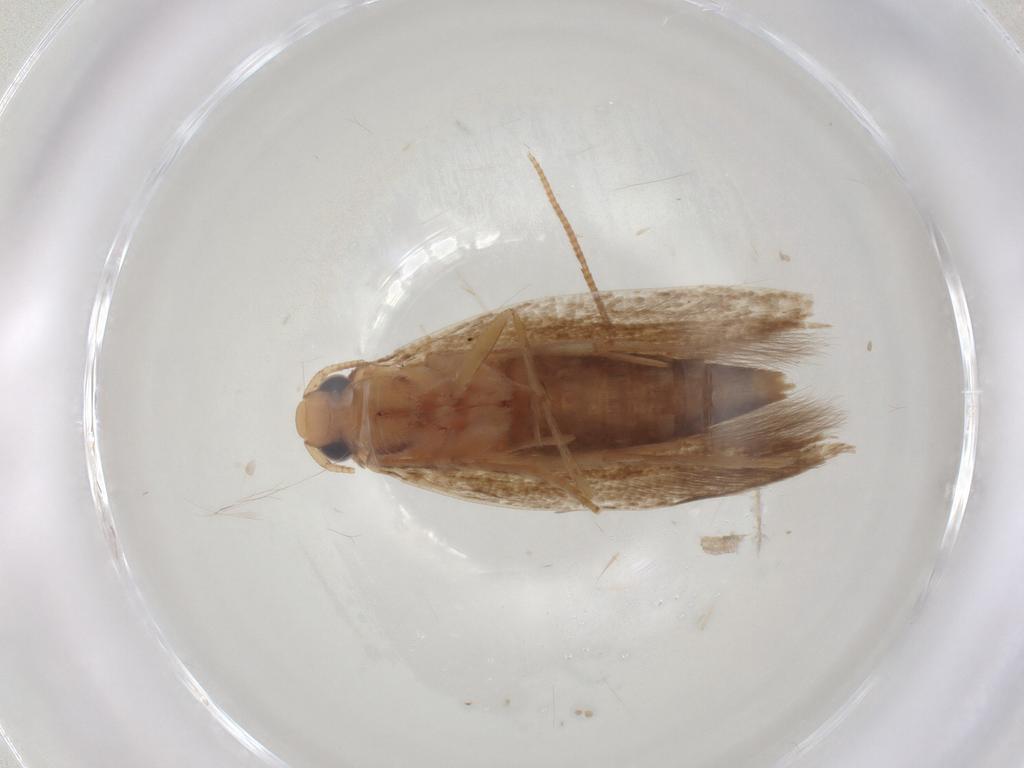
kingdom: Animalia
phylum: Arthropoda
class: Insecta
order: Lepidoptera
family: Tineidae
